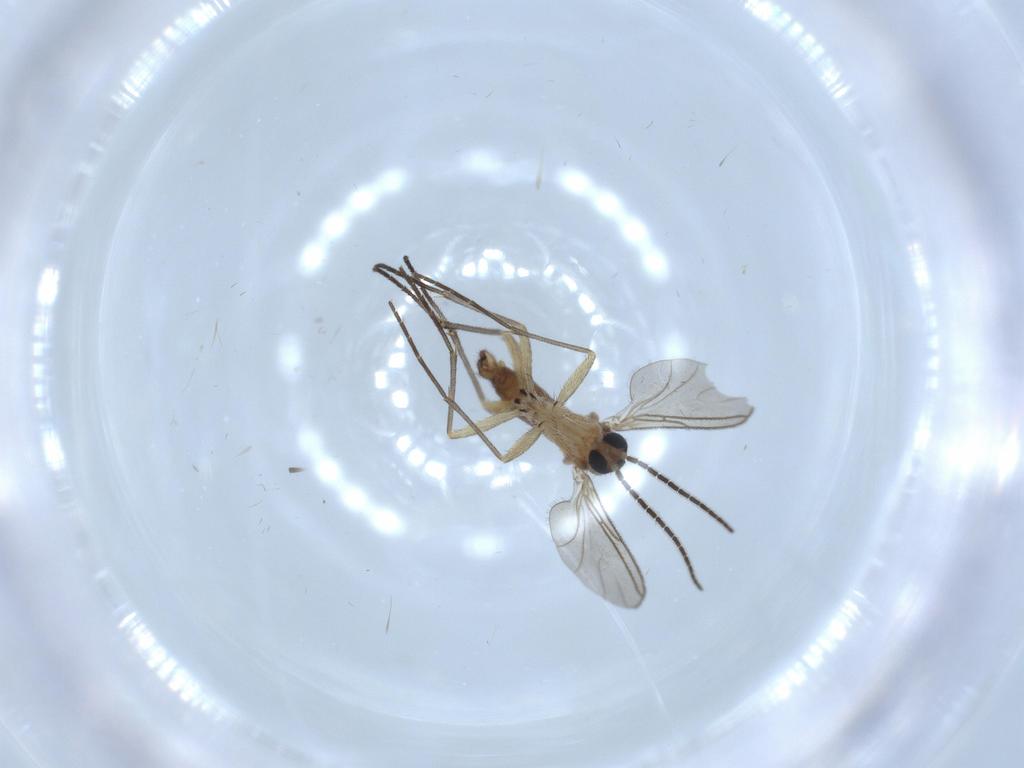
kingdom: Animalia
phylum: Arthropoda
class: Insecta
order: Diptera
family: Sciaridae
